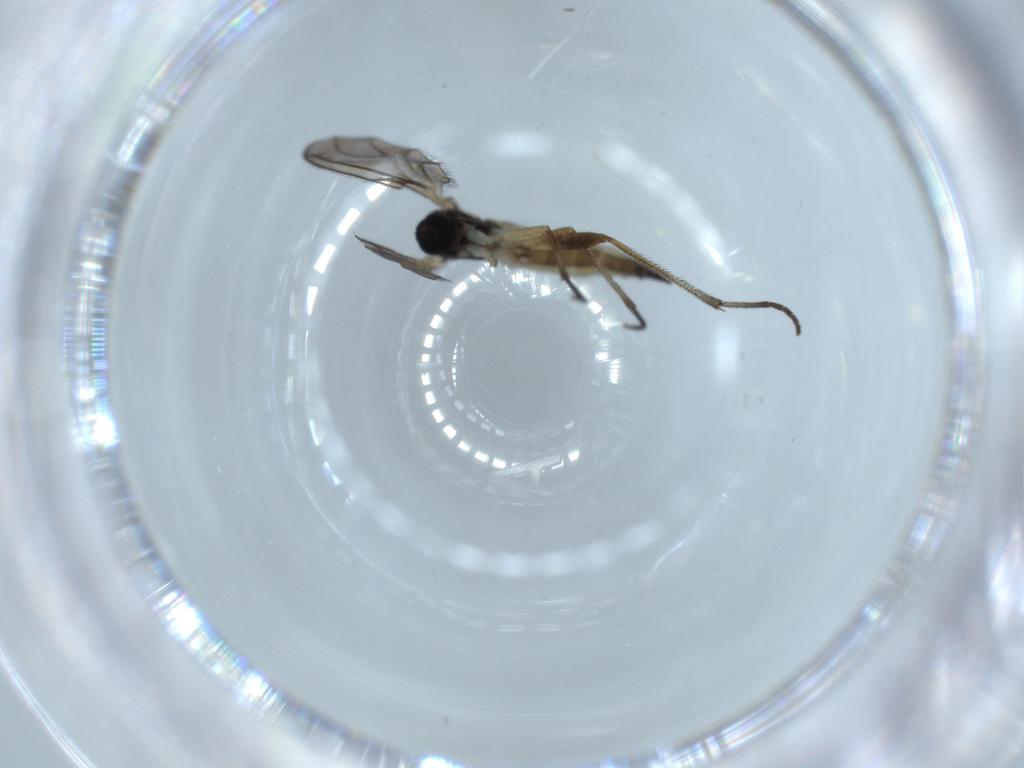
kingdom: Animalia
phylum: Arthropoda
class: Insecta
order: Diptera
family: Sciaridae
